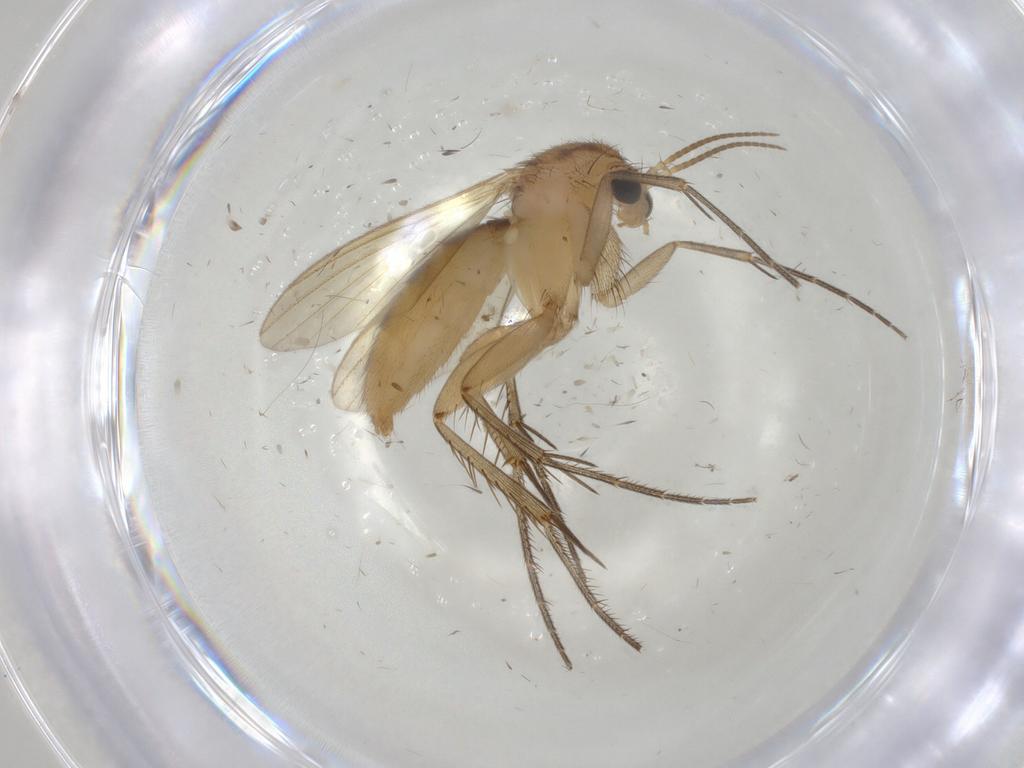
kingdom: Animalia
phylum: Arthropoda
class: Insecta
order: Diptera
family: Mycetophilidae
